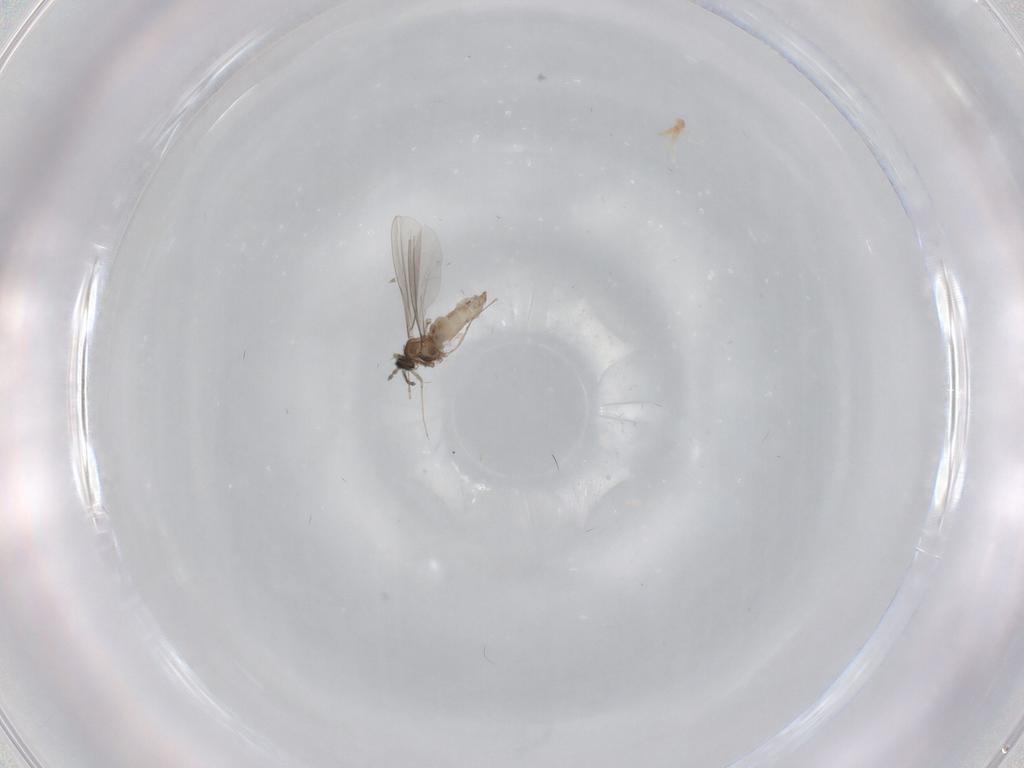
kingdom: Animalia
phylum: Arthropoda
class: Insecta
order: Diptera
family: Cecidomyiidae
